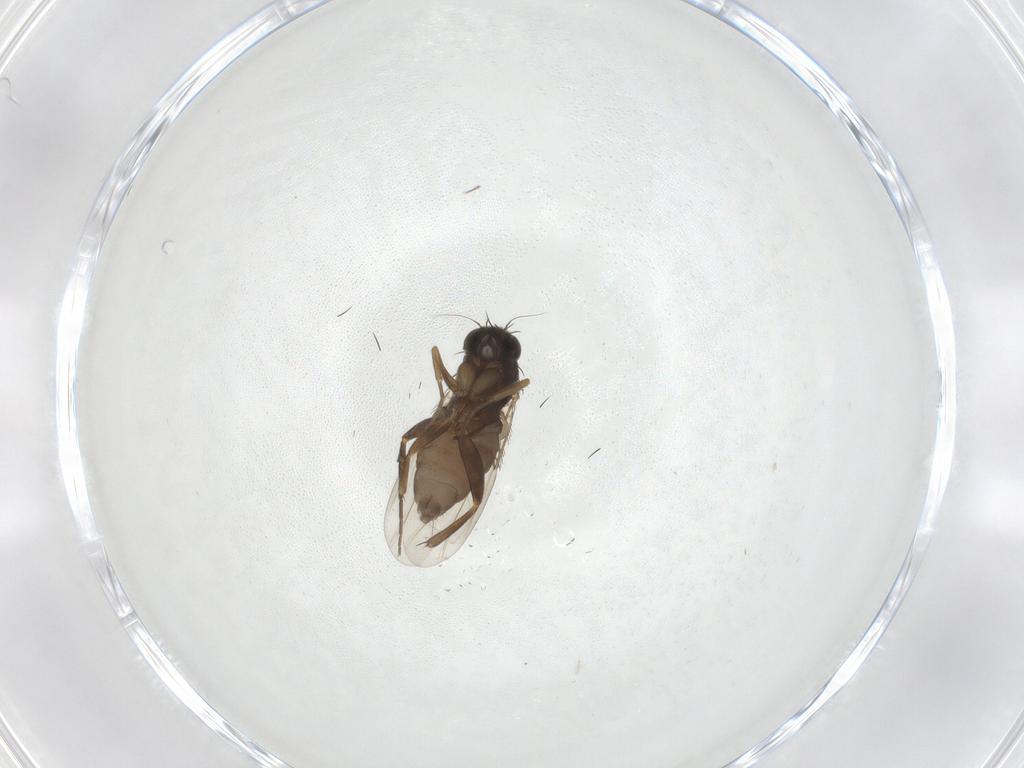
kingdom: Animalia
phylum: Arthropoda
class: Insecta
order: Diptera
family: Phoridae
